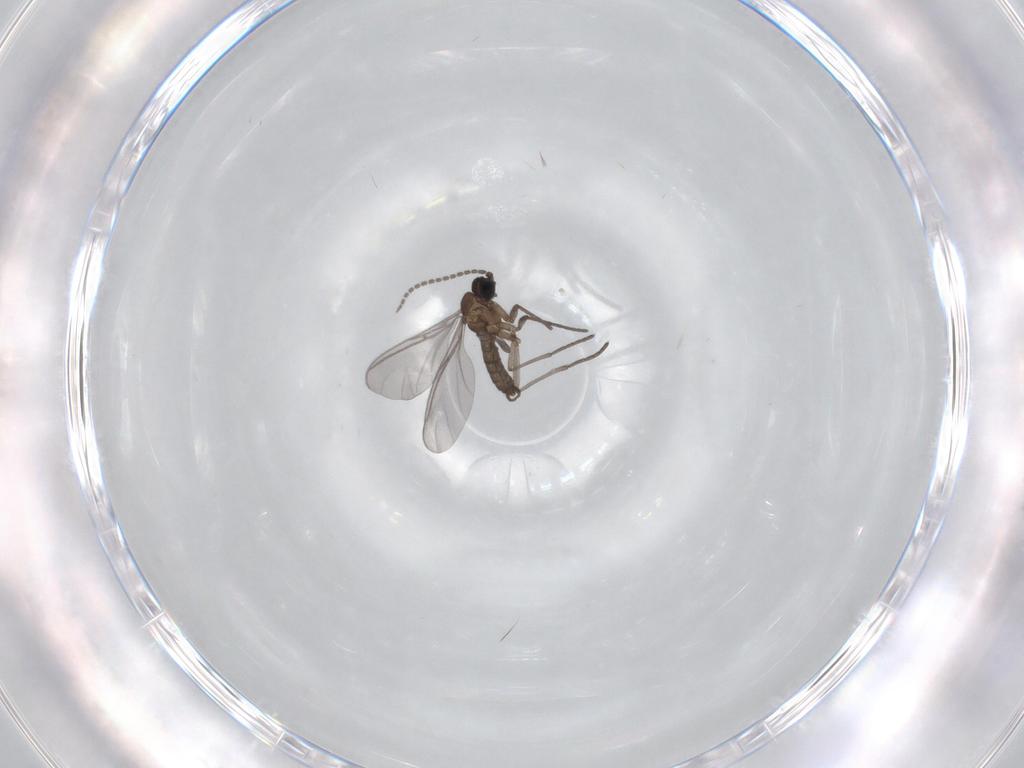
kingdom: Animalia
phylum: Arthropoda
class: Insecta
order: Diptera
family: Sciaridae
